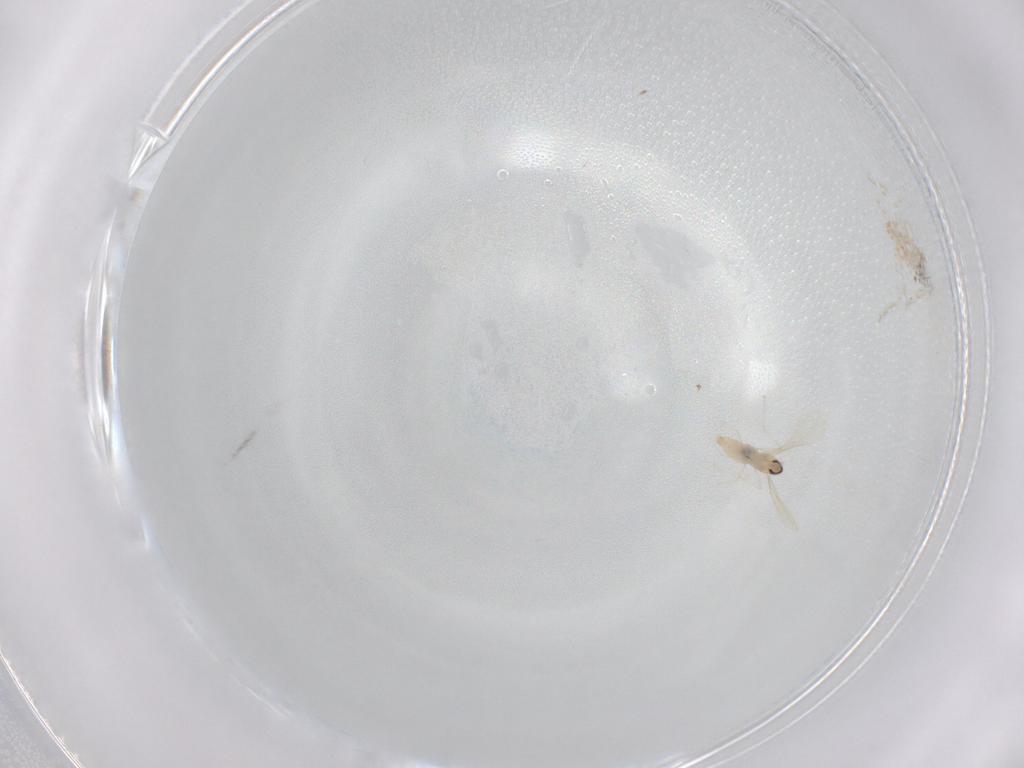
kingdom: Animalia
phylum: Arthropoda
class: Insecta
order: Diptera
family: Cecidomyiidae
